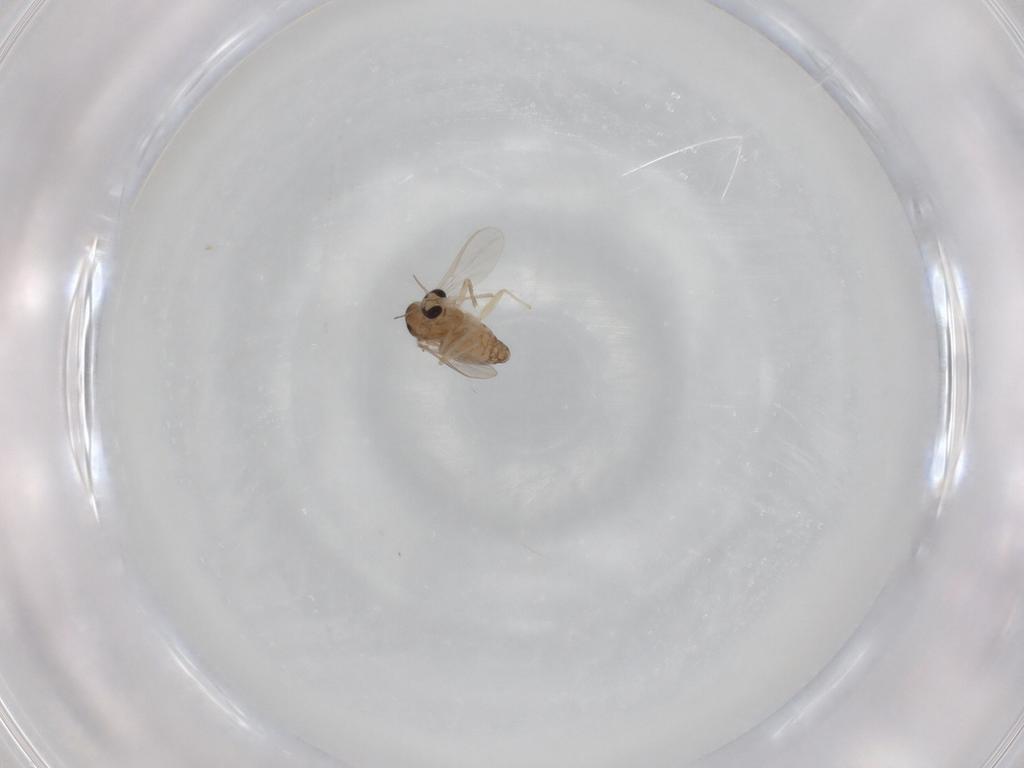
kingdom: Animalia
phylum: Arthropoda
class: Insecta
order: Diptera
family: Chironomidae
